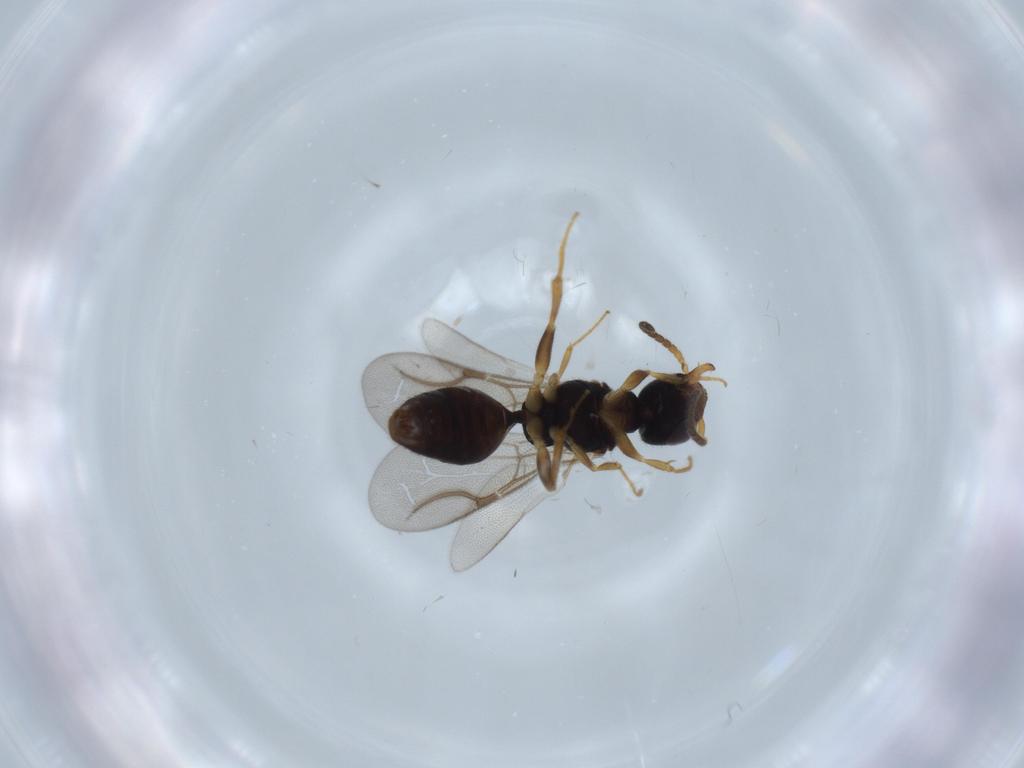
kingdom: Animalia
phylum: Arthropoda
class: Insecta
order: Hymenoptera
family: Bethylidae
